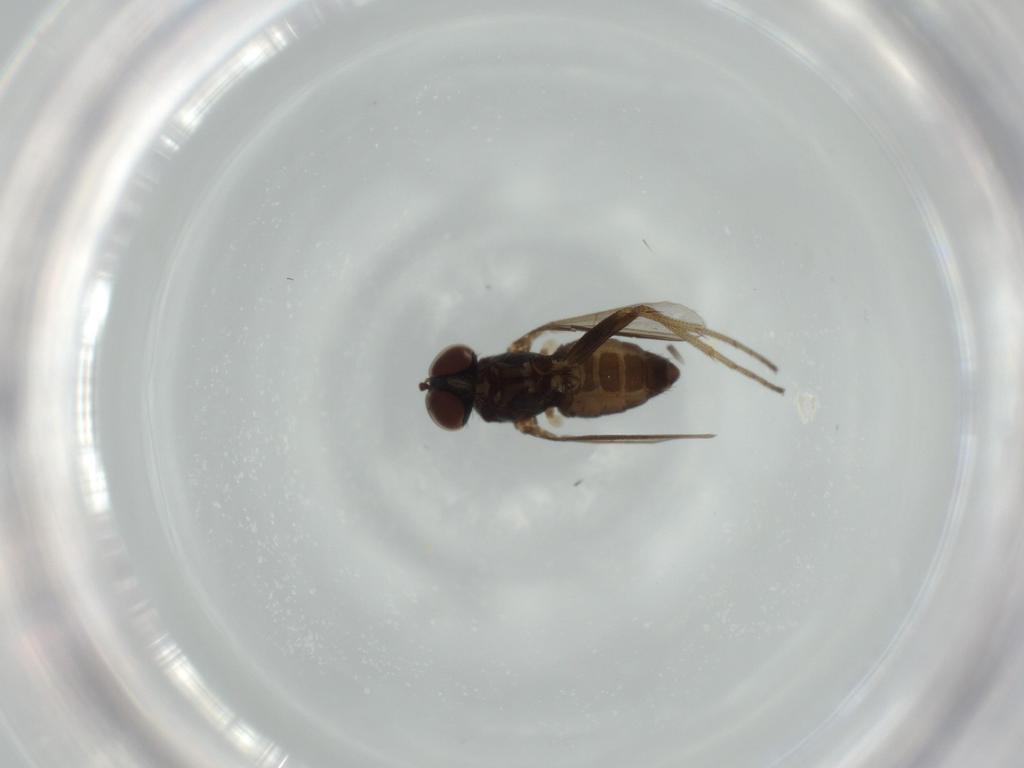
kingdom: Animalia
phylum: Arthropoda
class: Insecta
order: Diptera
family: Dolichopodidae
